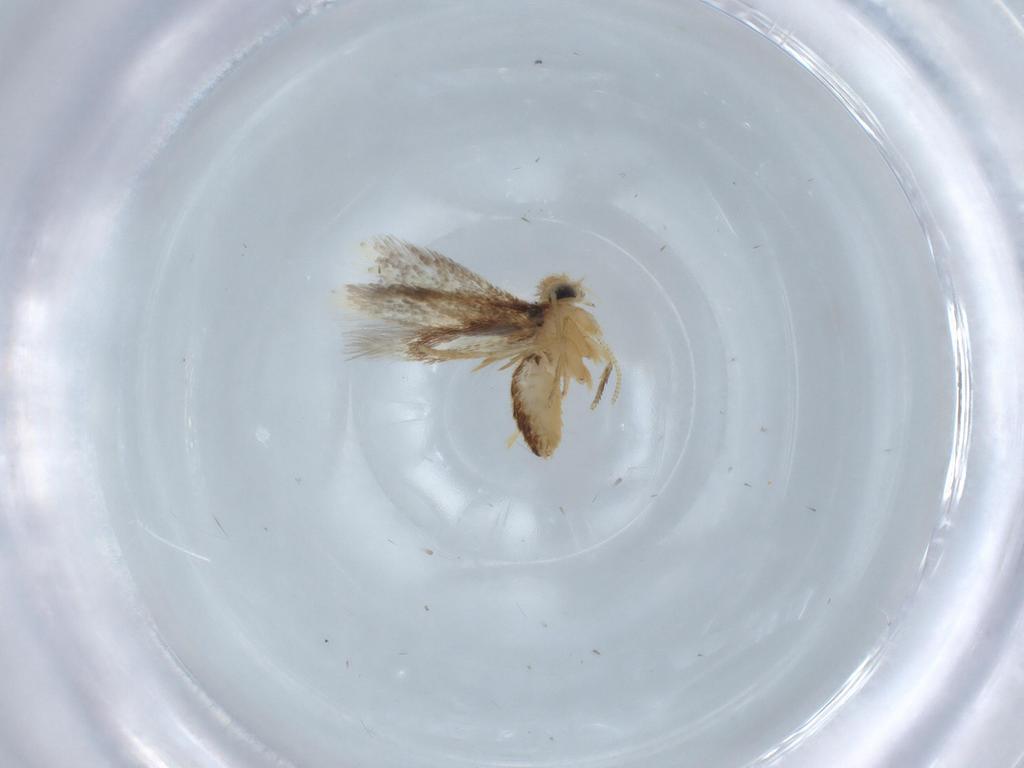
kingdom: Animalia
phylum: Arthropoda
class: Insecta
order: Lepidoptera
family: Nepticulidae
